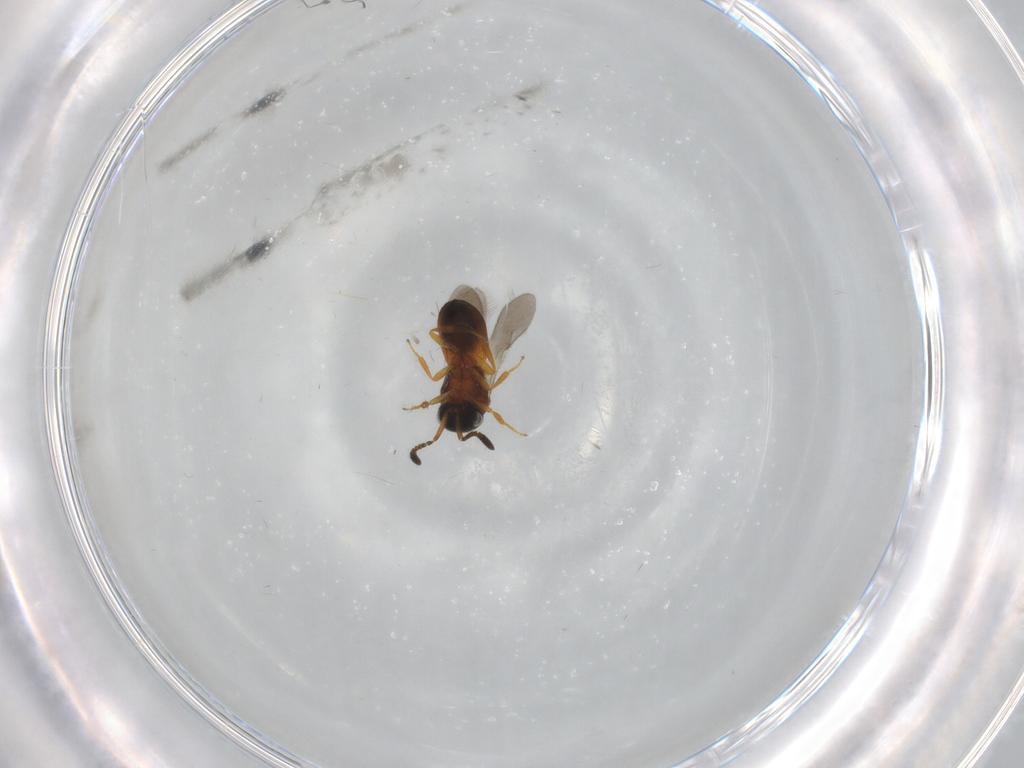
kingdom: Animalia
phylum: Arthropoda
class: Insecta
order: Hymenoptera
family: Scelionidae
